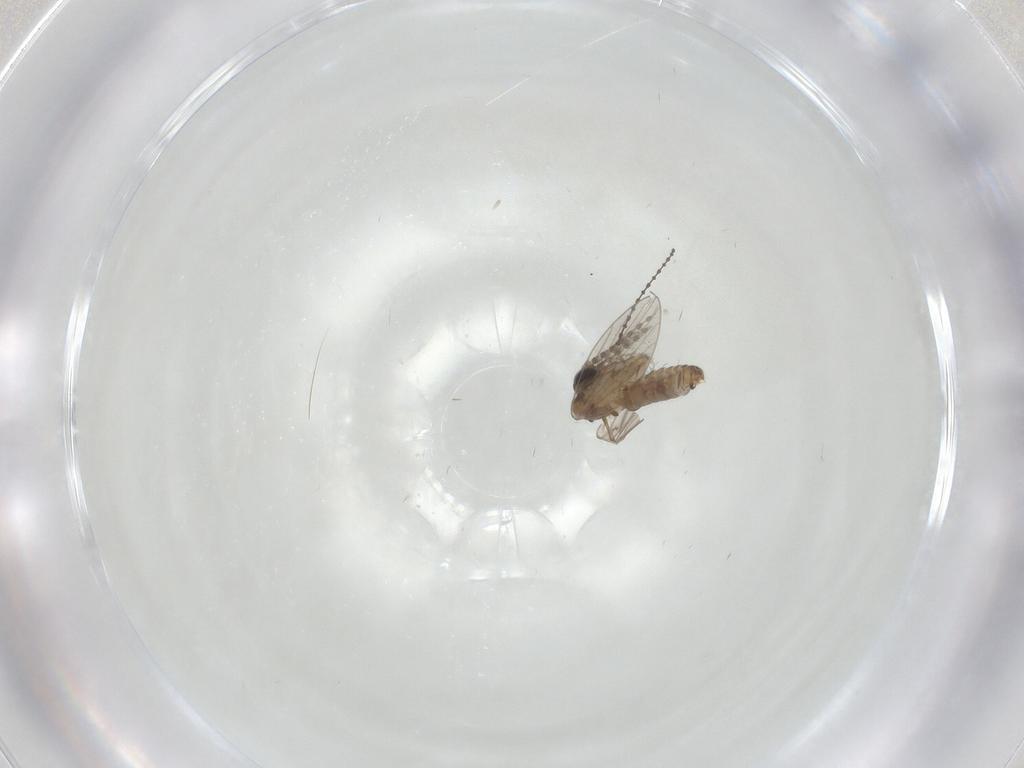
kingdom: Animalia
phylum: Arthropoda
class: Insecta
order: Diptera
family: Cecidomyiidae
